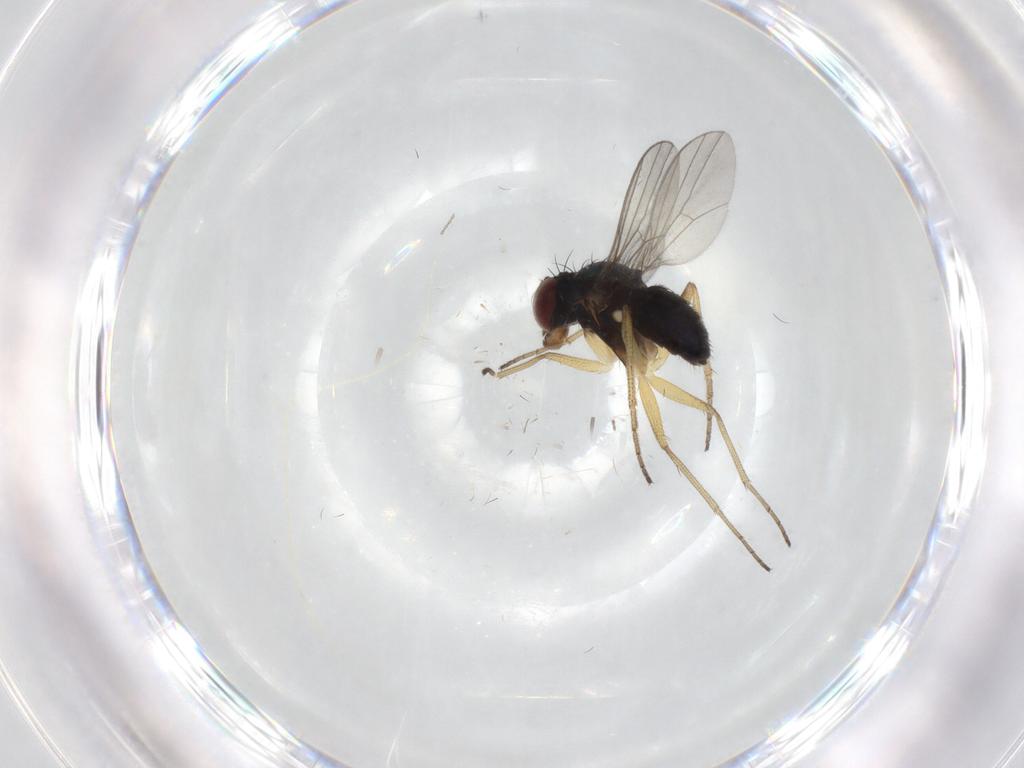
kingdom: Animalia
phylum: Arthropoda
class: Insecta
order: Diptera
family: Dolichopodidae
